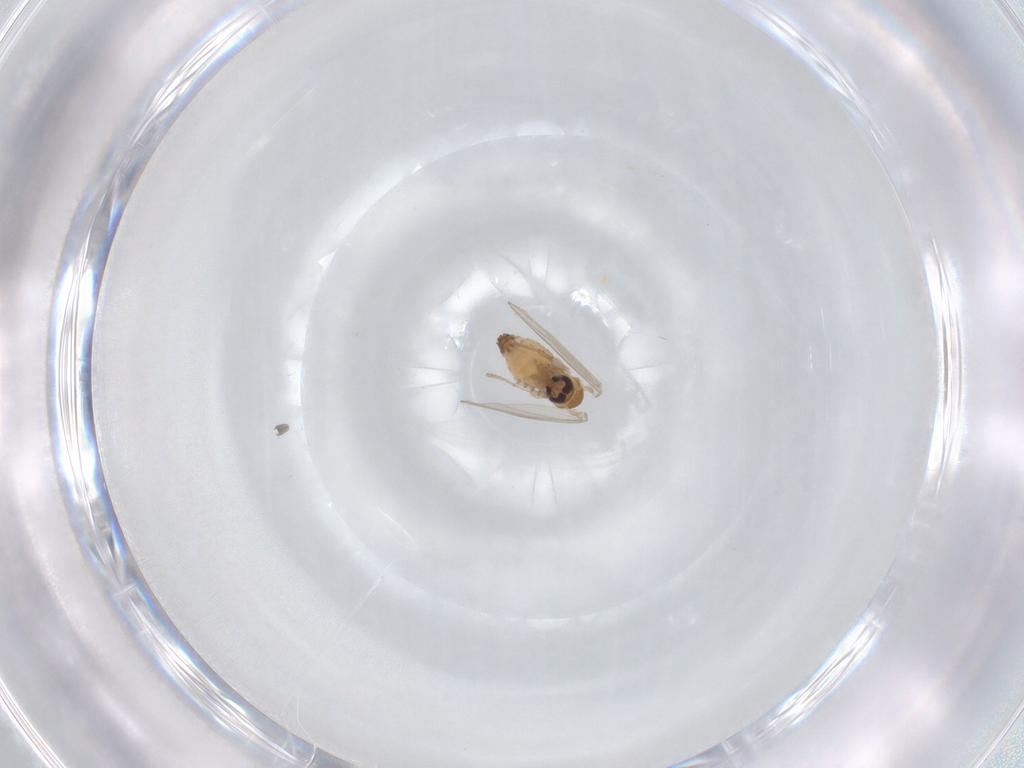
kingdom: Animalia
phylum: Arthropoda
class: Insecta
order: Diptera
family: Psychodidae
